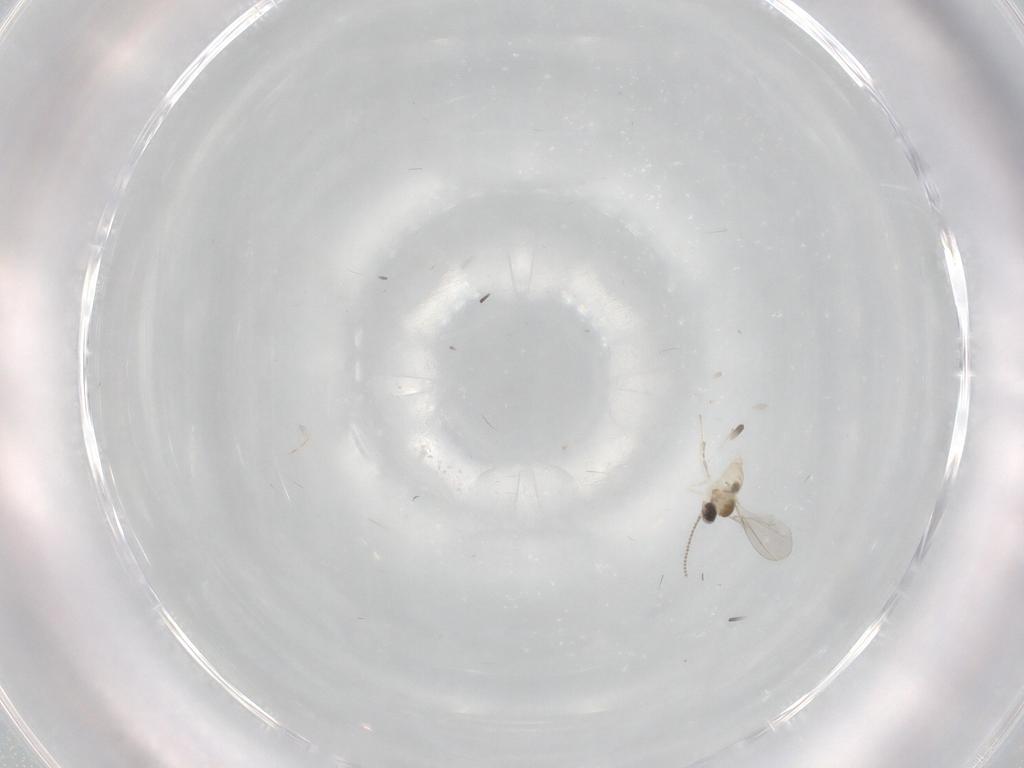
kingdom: Animalia
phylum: Arthropoda
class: Insecta
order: Diptera
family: Cecidomyiidae
